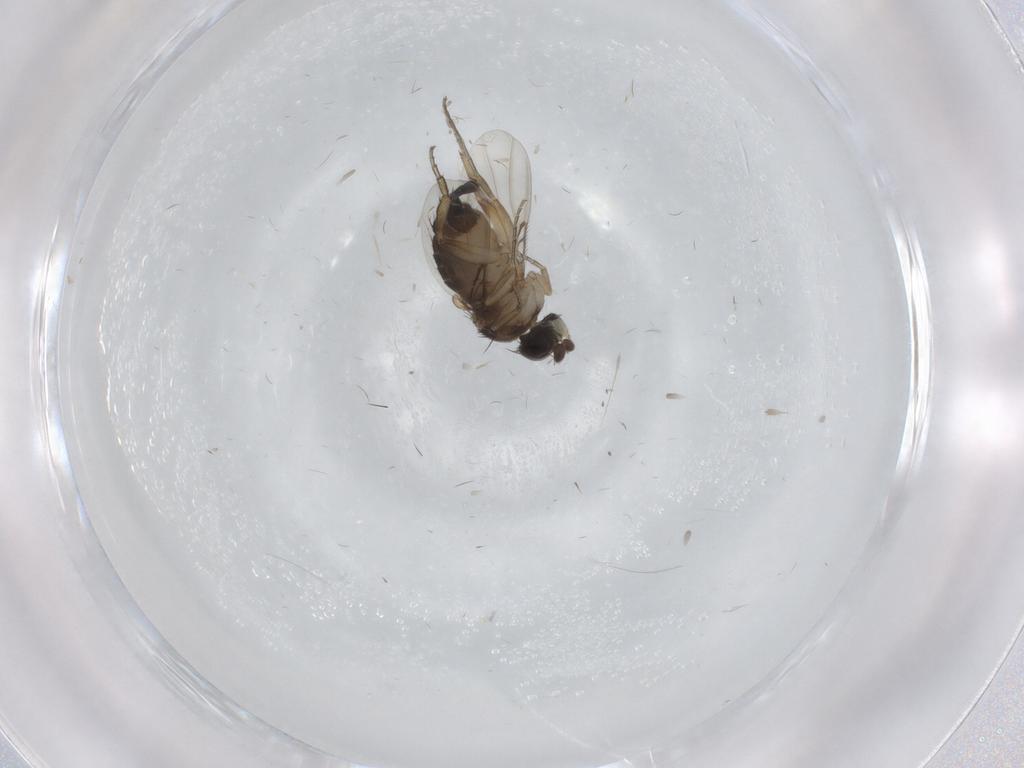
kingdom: Animalia
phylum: Arthropoda
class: Insecta
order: Diptera
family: Phoridae
